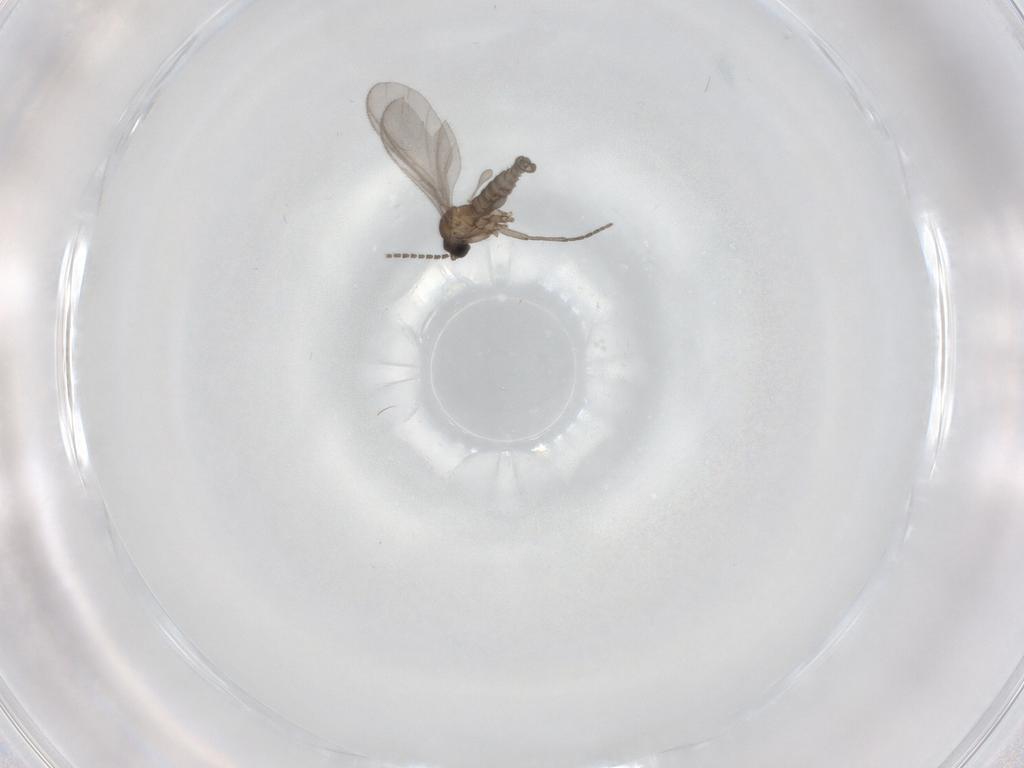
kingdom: Animalia
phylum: Arthropoda
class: Insecta
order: Diptera
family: Sciaridae
